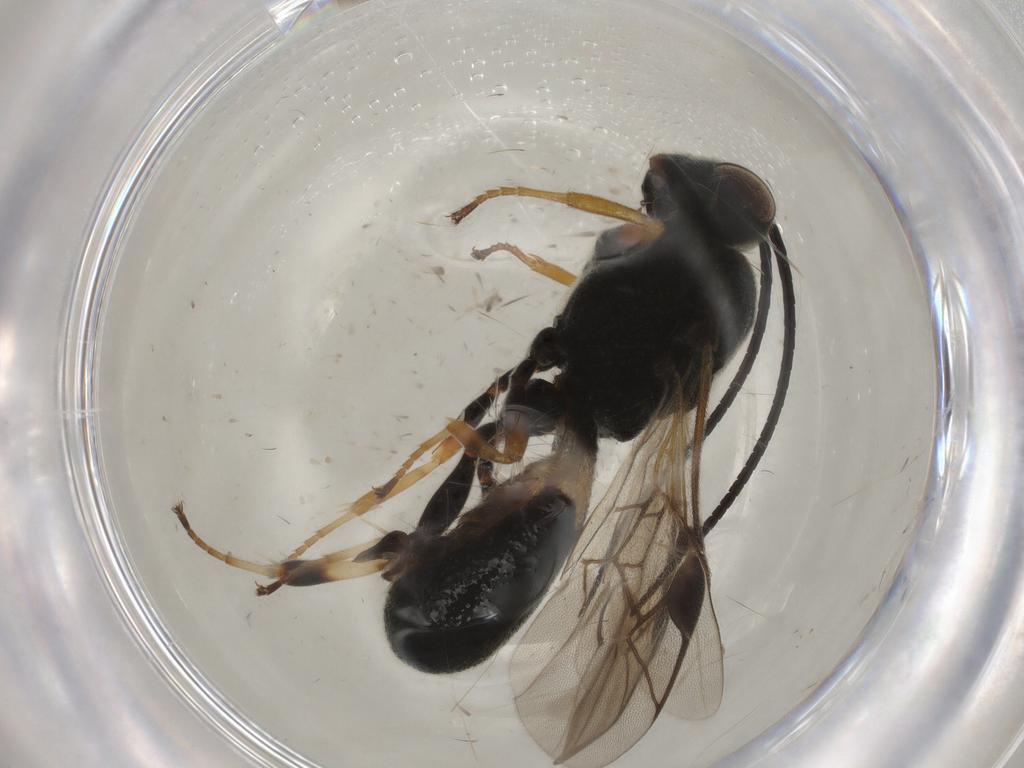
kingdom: Animalia
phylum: Arthropoda
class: Insecta
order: Hymenoptera
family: Braconidae
